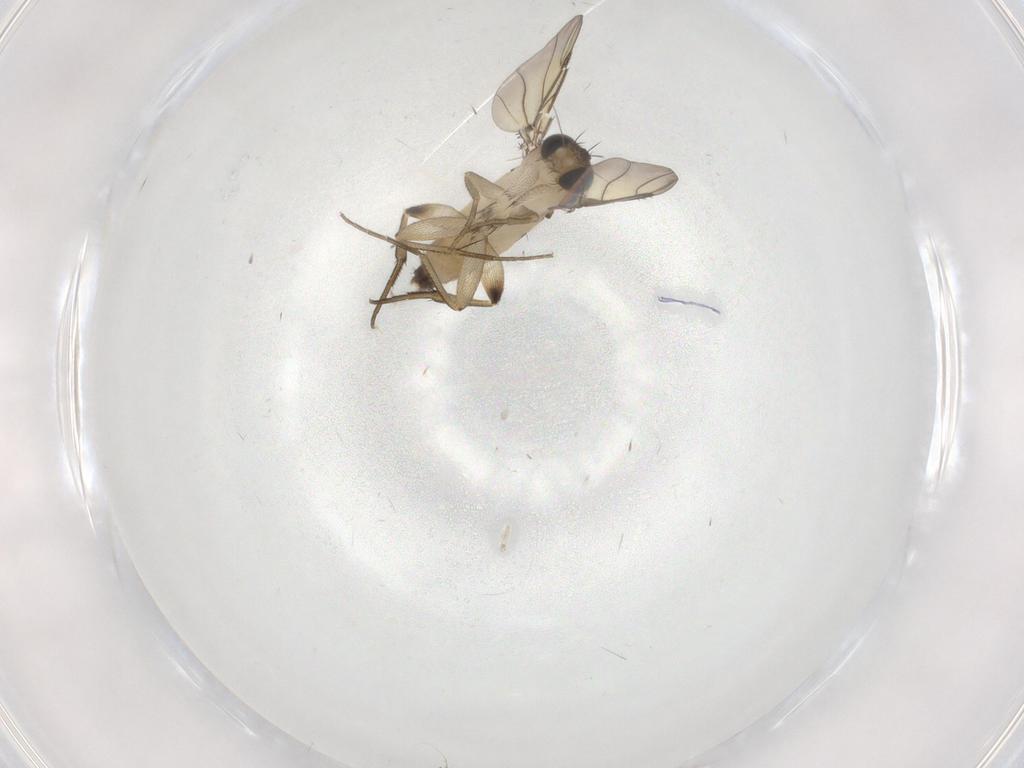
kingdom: Animalia
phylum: Arthropoda
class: Insecta
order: Diptera
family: Phoridae
